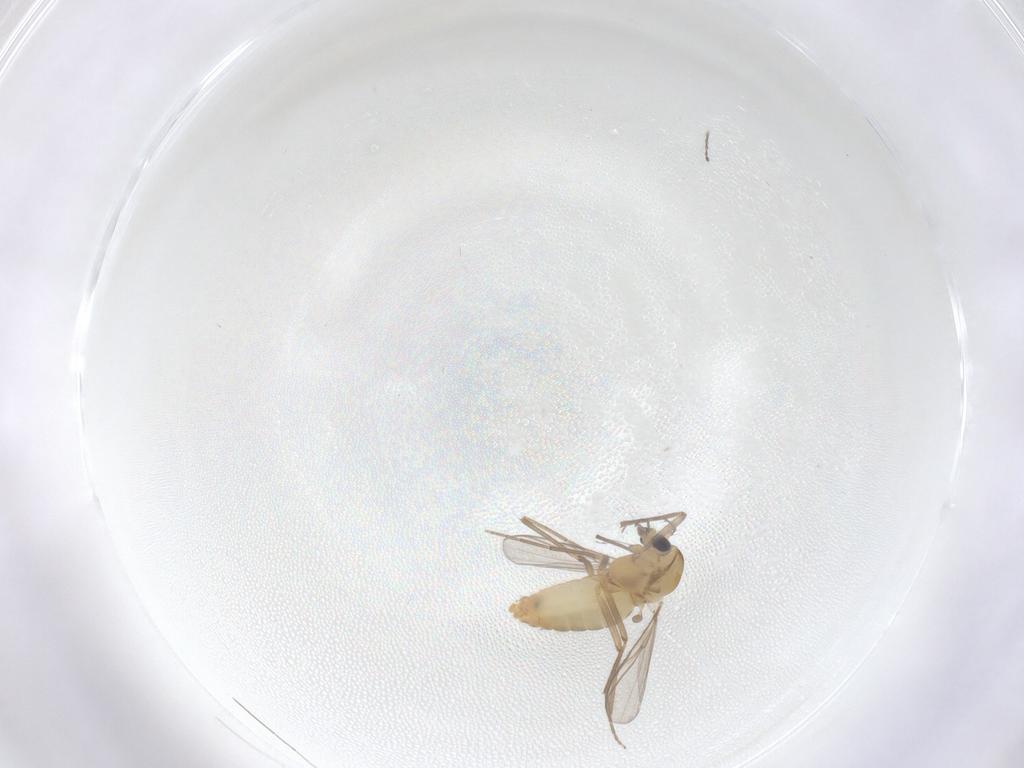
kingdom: Animalia
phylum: Arthropoda
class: Insecta
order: Diptera
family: Chironomidae
